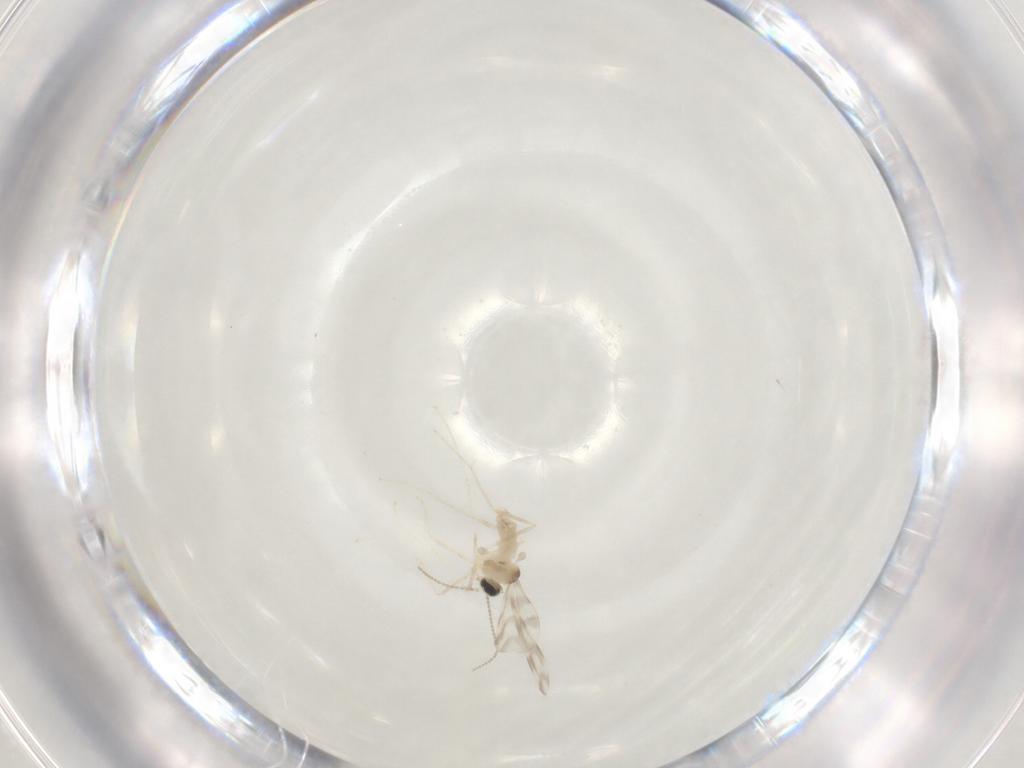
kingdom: Animalia
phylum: Arthropoda
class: Insecta
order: Diptera
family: Cecidomyiidae
